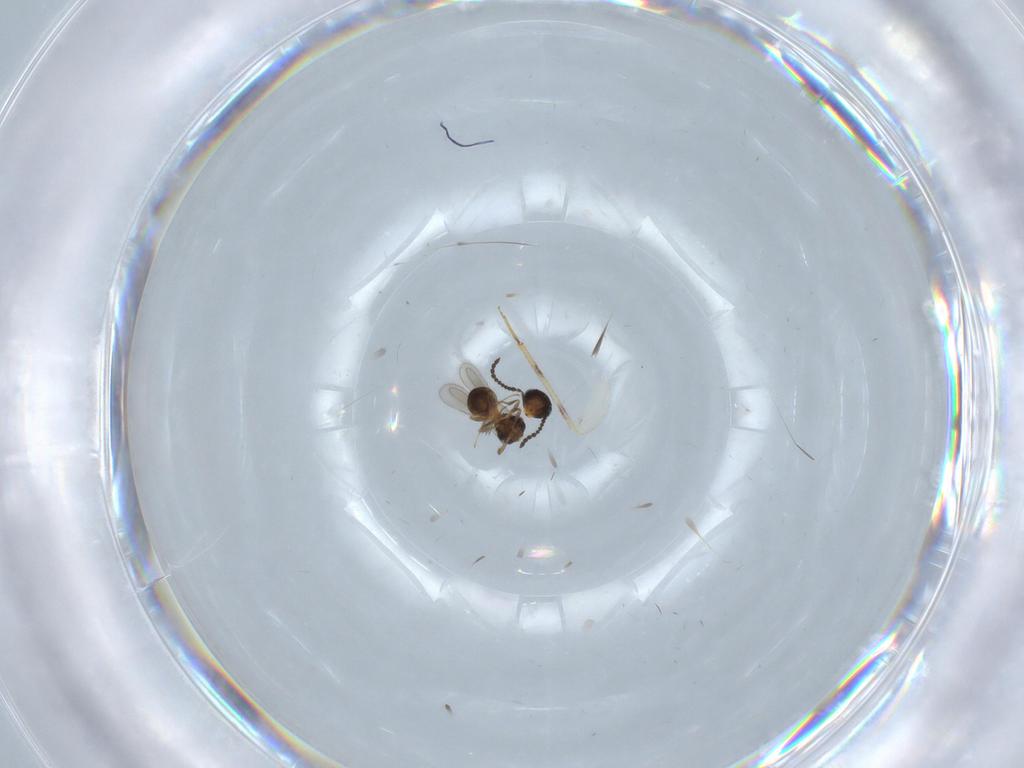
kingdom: Animalia
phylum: Arthropoda
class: Insecta
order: Hymenoptera
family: Scelionidae
